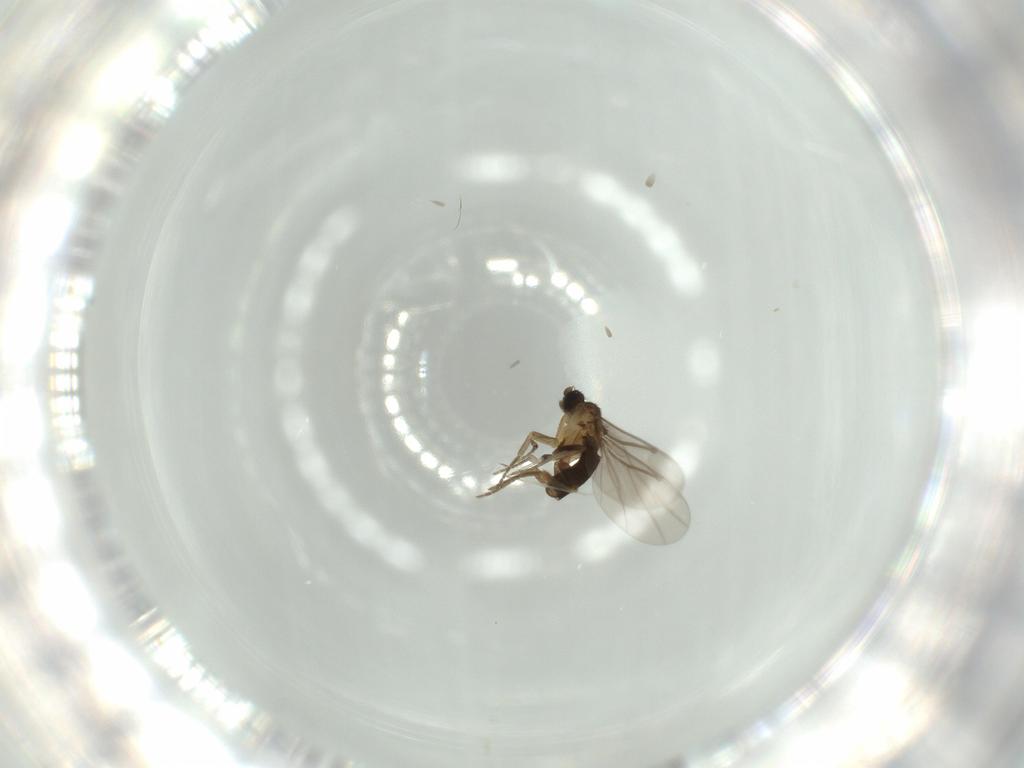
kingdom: Animalia
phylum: Arthropoda
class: Insecta
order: Diptera
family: Phoridae
